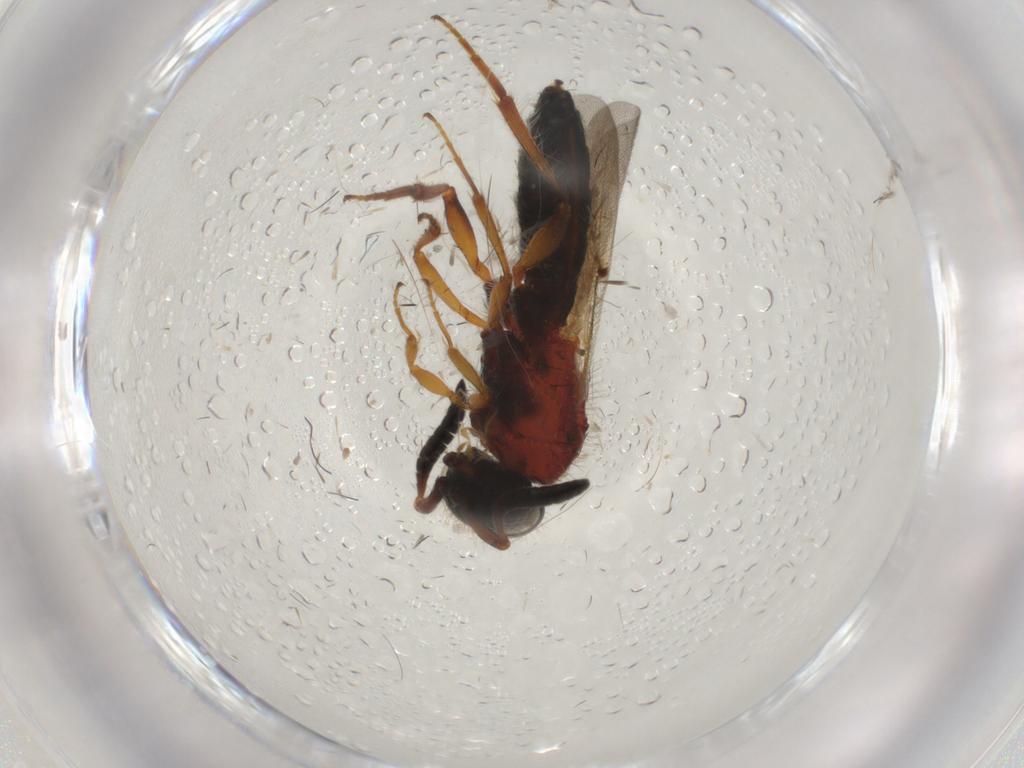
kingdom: Animalia
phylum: Arthropoda
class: Insecta
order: Hymenoptera
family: Scelionidae
